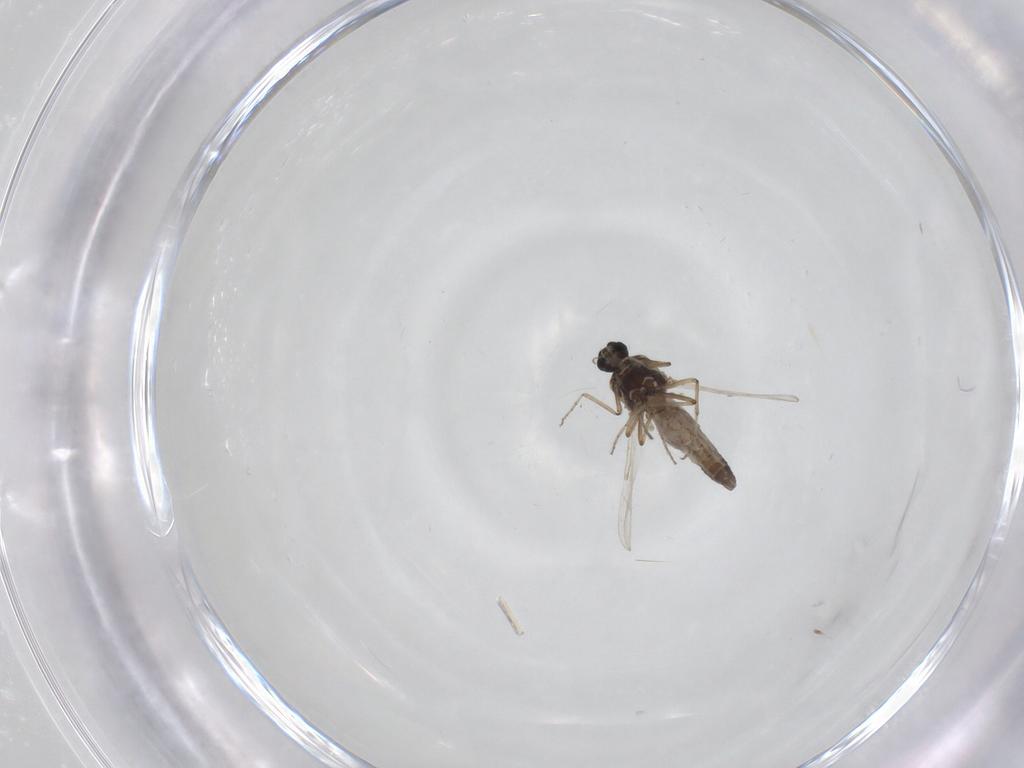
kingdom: Animalia
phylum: Arthropoda
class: Insecta
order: Diptera
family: Ceratopogonidae
